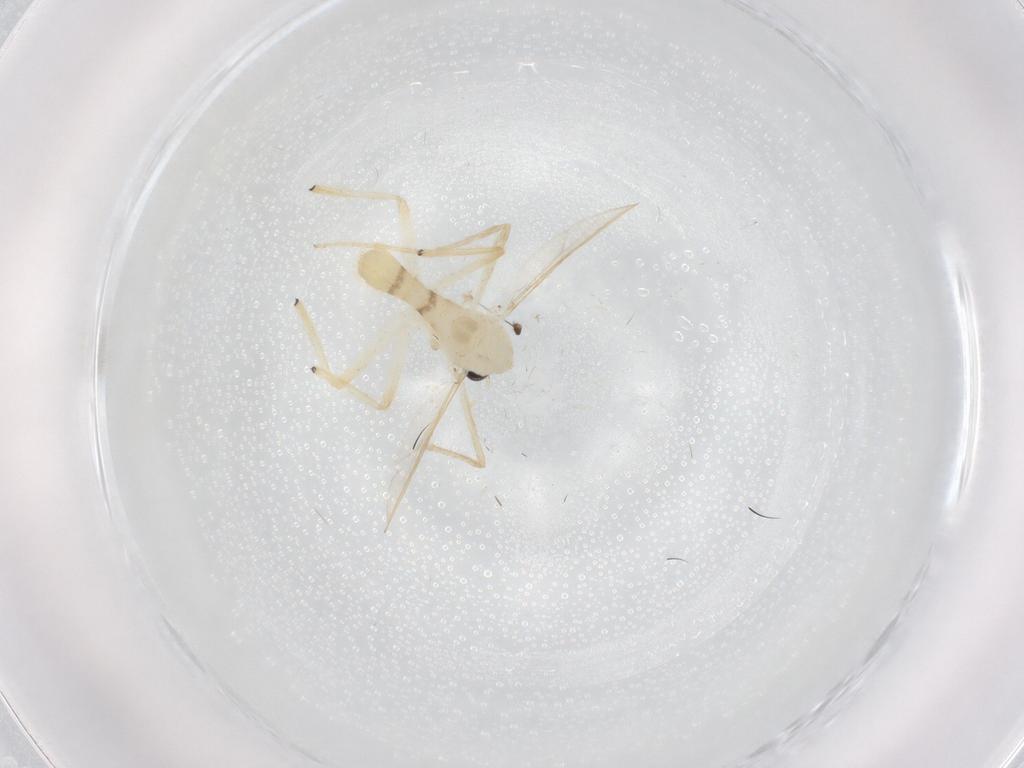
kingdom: Animalia
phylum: Arthropoda
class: Insecta
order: Diptera
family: Chironomidae
